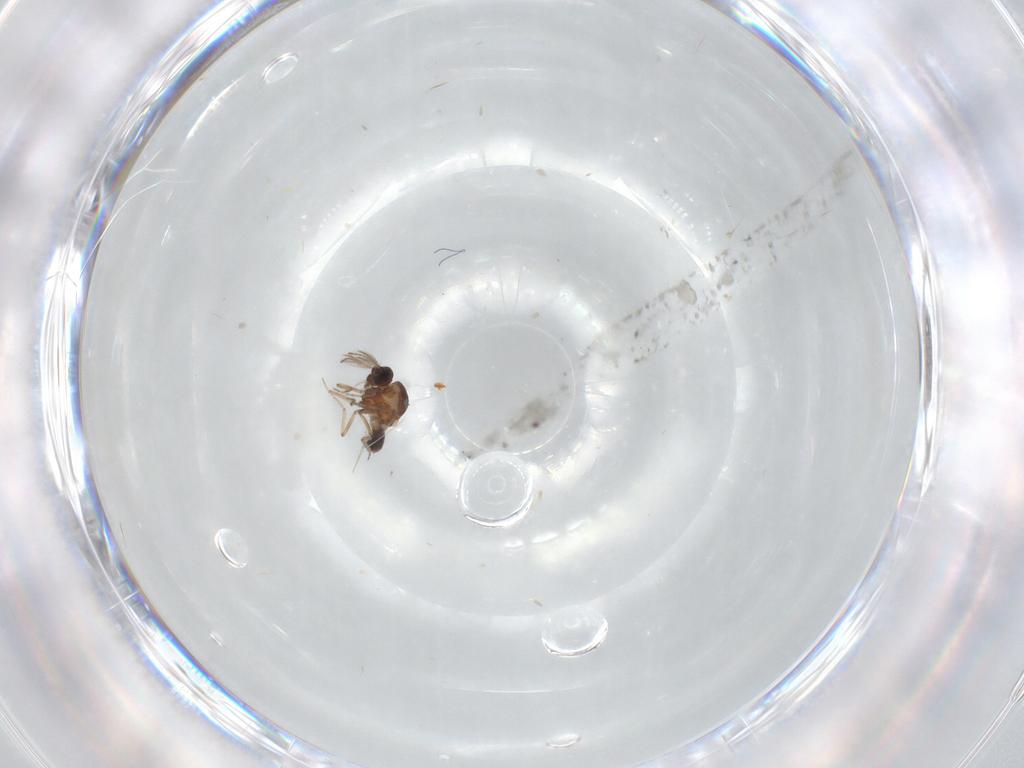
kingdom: Animalia
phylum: Arthropoda
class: Insecta
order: Diptera
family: Ceratopogonidae
